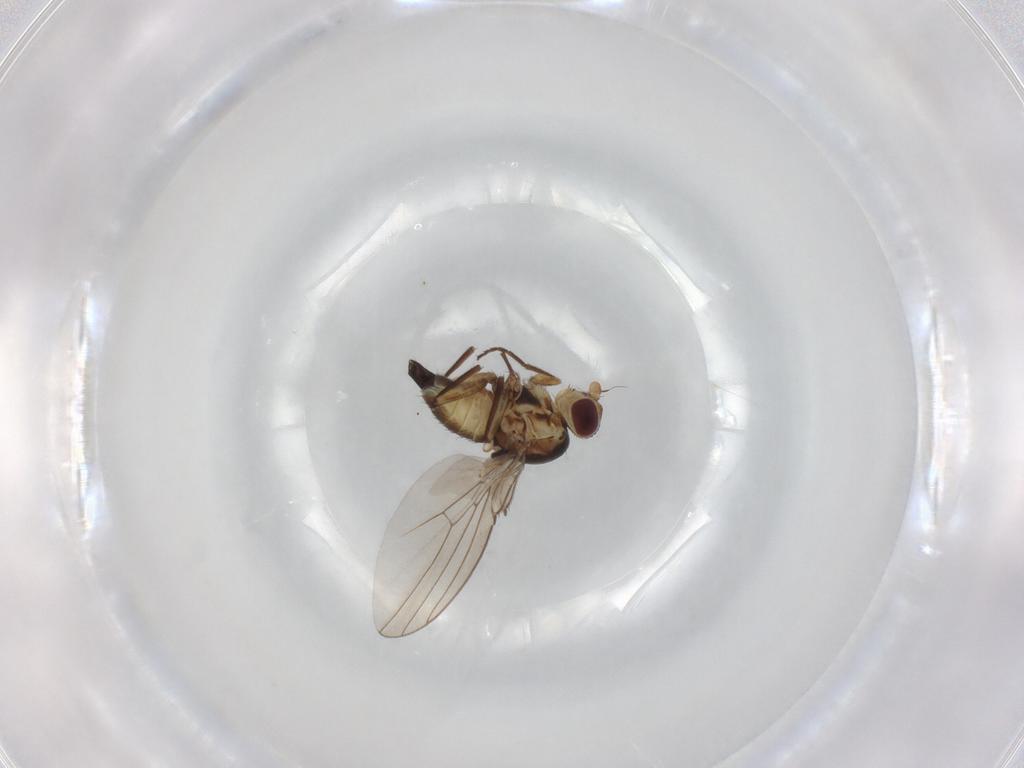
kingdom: Animalia
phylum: Arthropoda
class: Insecta
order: Diptera
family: Agromyzidae
